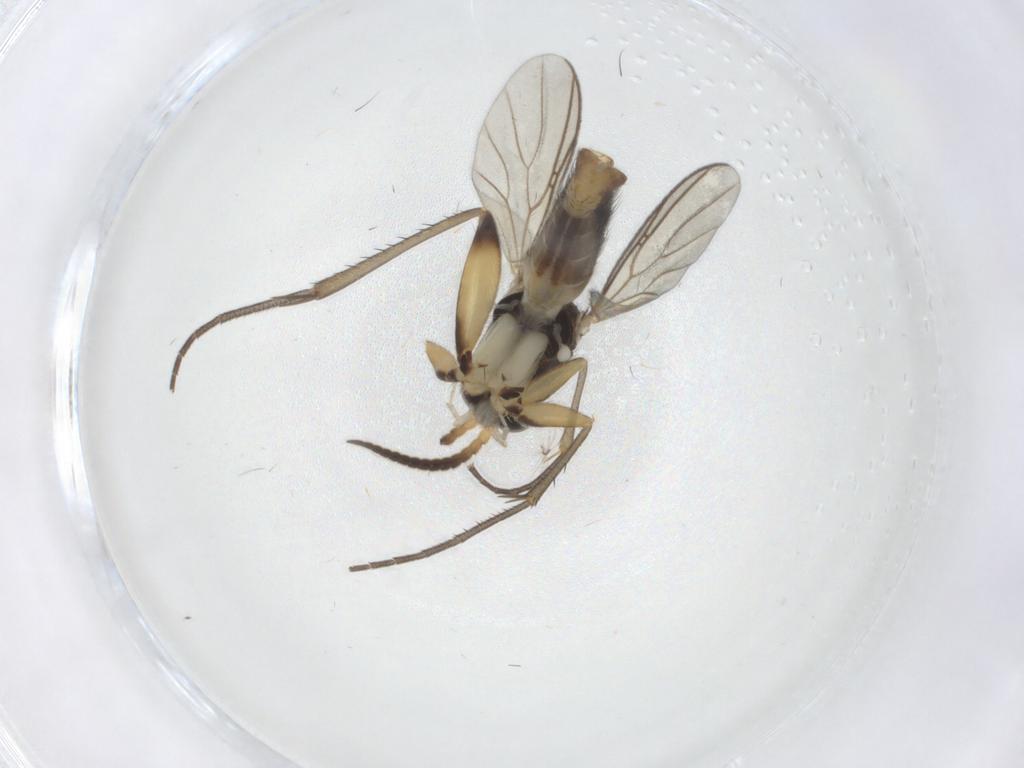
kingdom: Animalia
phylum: Arthropoda
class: Insecta
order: Diptera
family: Mycetophilidae
